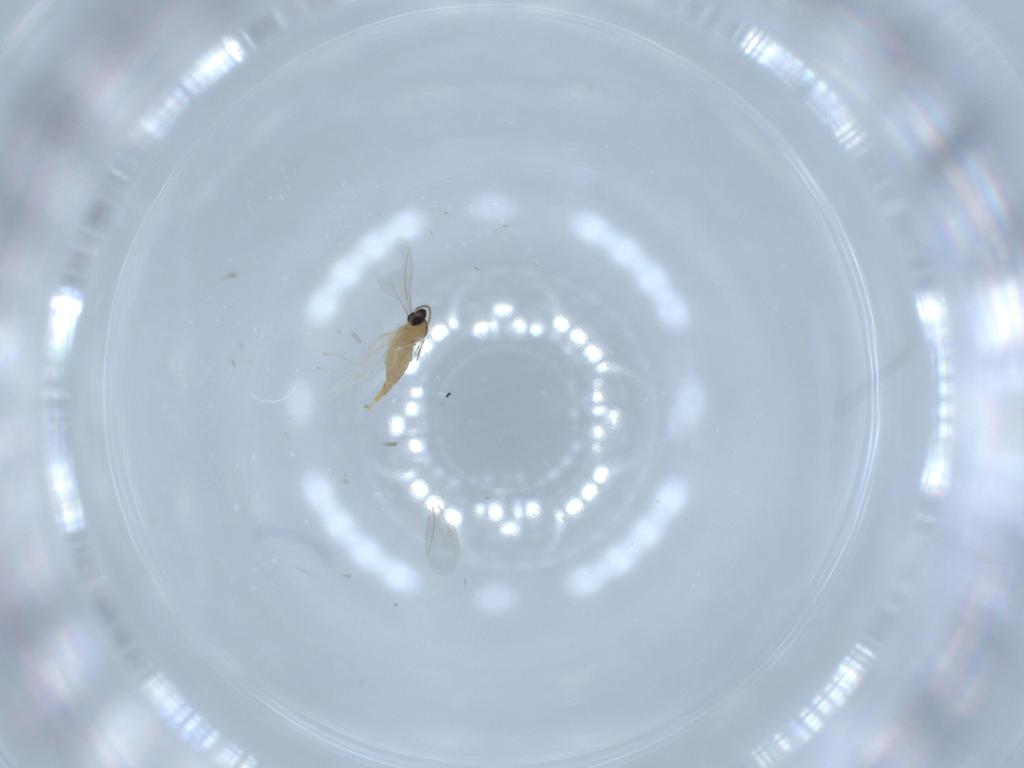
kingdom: Animalia
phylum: Arthropoda
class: Insecta
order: Diptera
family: Cecidomyiidae
